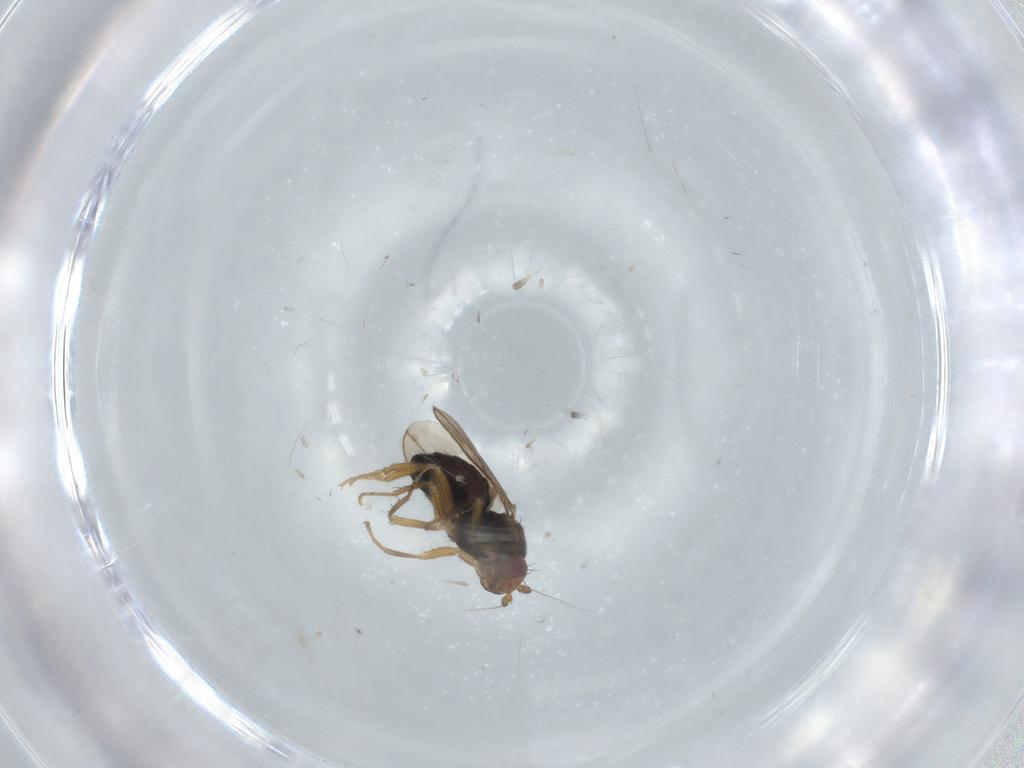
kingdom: Animalia
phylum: Arthropoda
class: Insecta
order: Diptera
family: Sphaeroceridae
